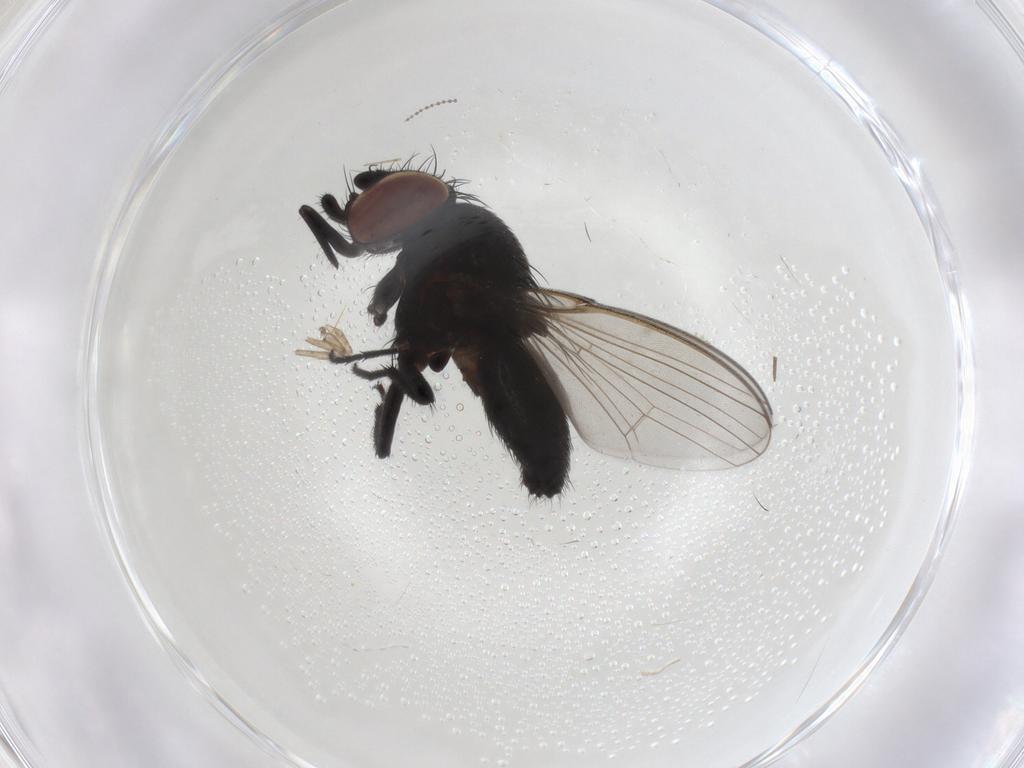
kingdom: Animalia
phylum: Arthropoda
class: Insecta
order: Diptera
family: Milichiidae
